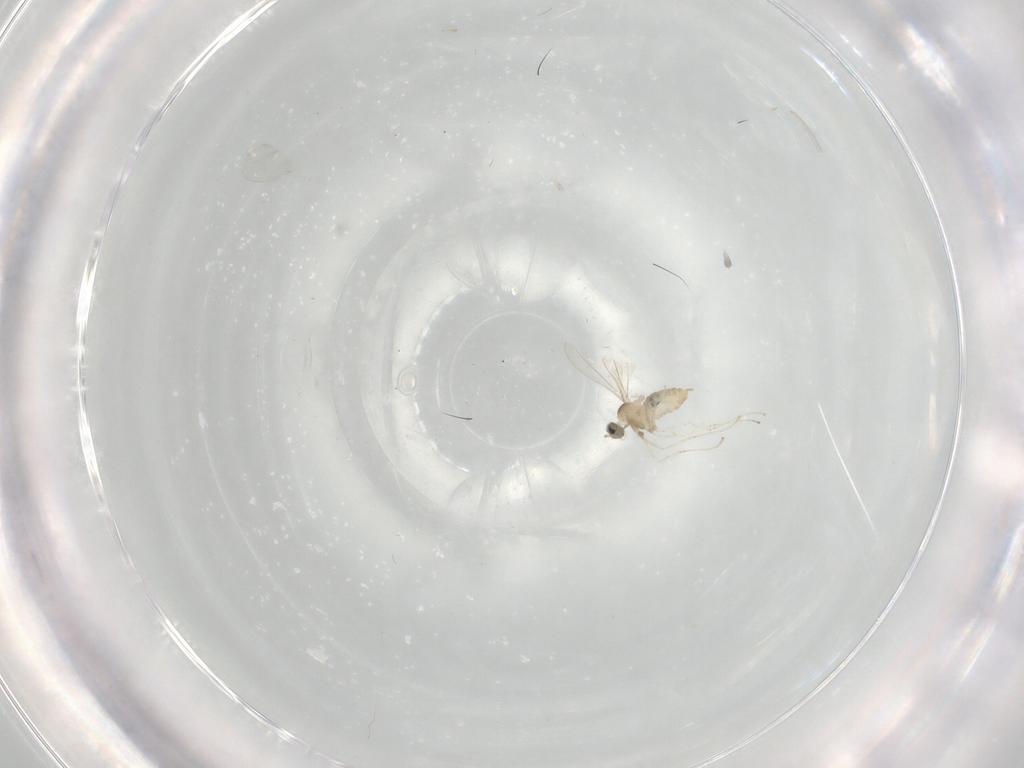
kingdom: Animalia
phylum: Arthropoda
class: Insecta
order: Diptera
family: Cecidomyiidae
